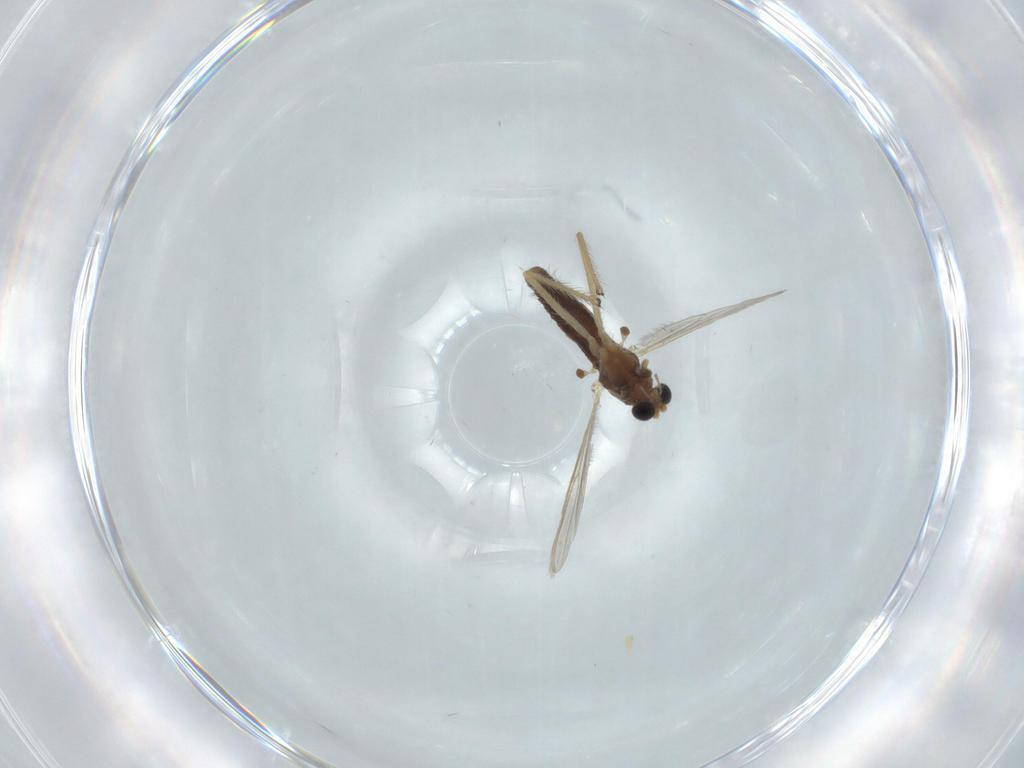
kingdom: Animalia
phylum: Arthropoda
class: Insecta
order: Diptera
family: Chironomidae
